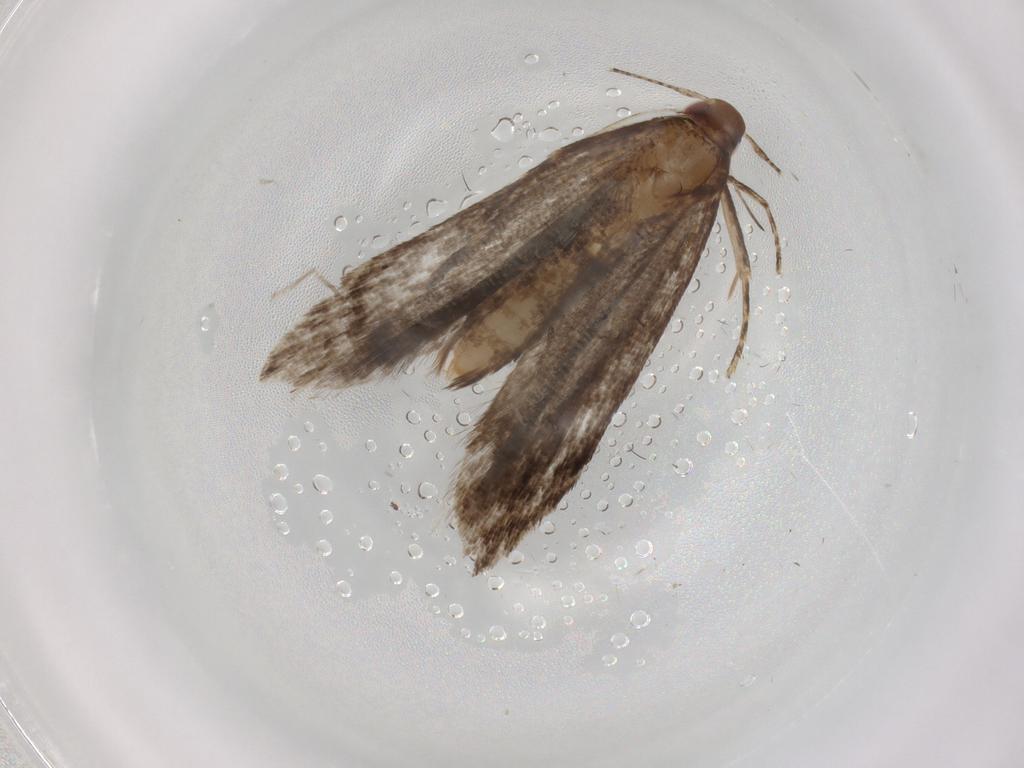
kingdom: Animalia
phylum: Arthropoda
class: Insecta
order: Lepidoptera
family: Gelechiidae
